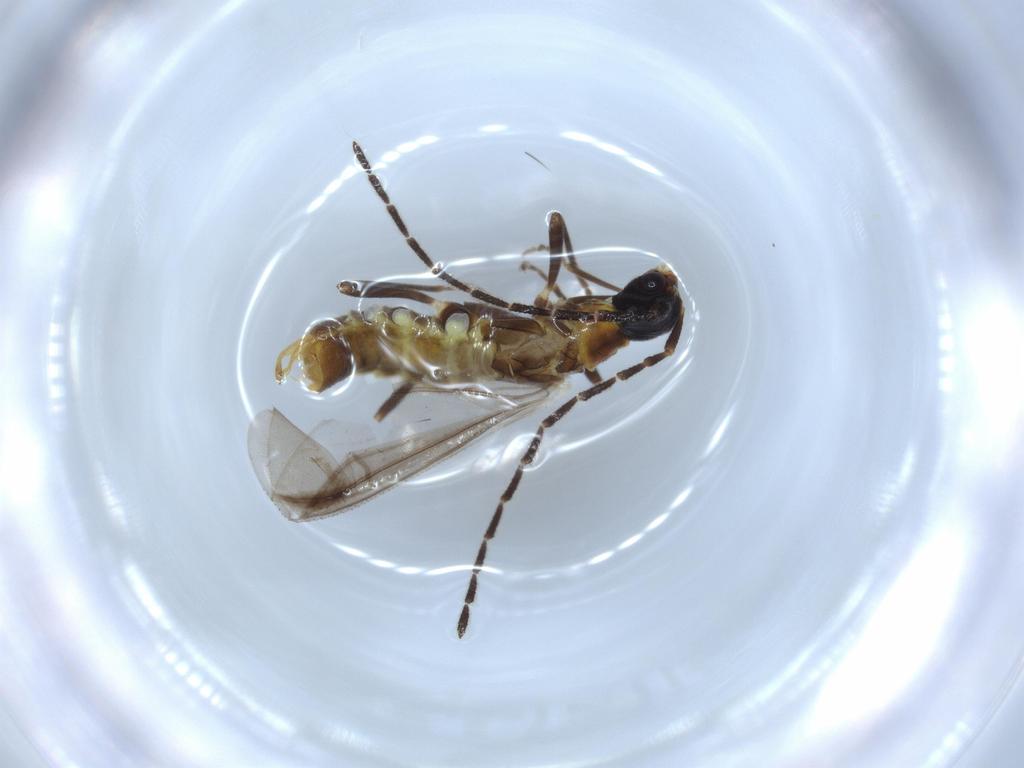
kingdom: Animalia
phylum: Arthropoda
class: Insecta
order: Coleoptera
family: Cantharidae
